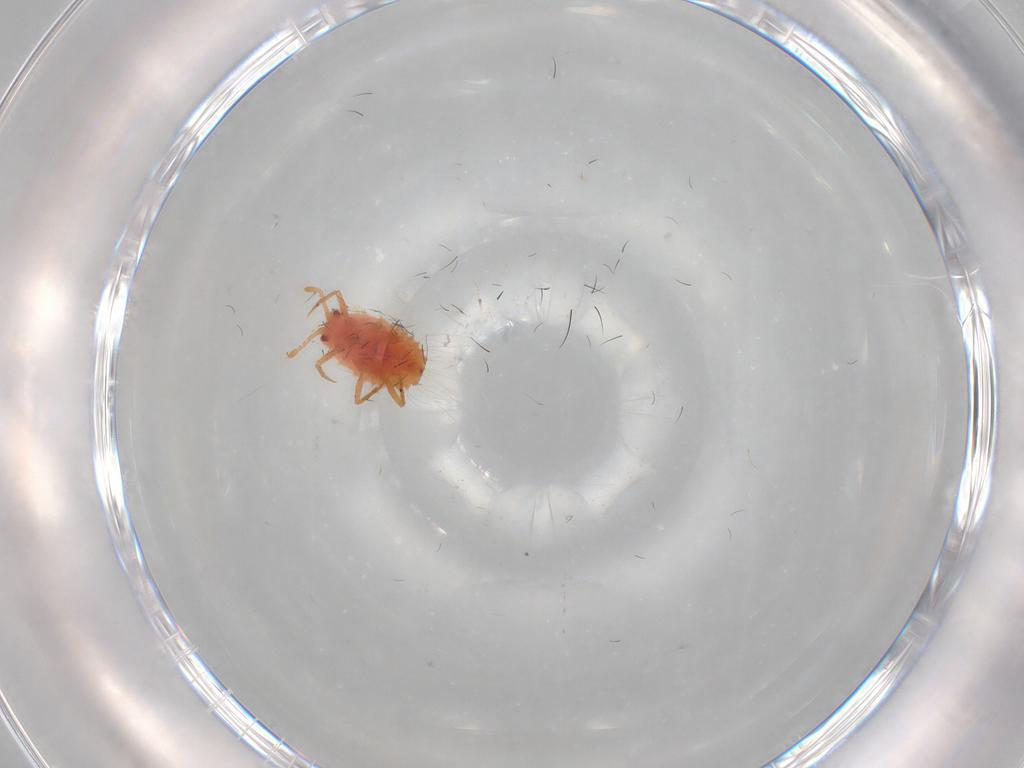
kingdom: Animalia
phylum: Arthropoda
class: Insecta
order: Hemiptera
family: Coccoidea_incertae_sedis
